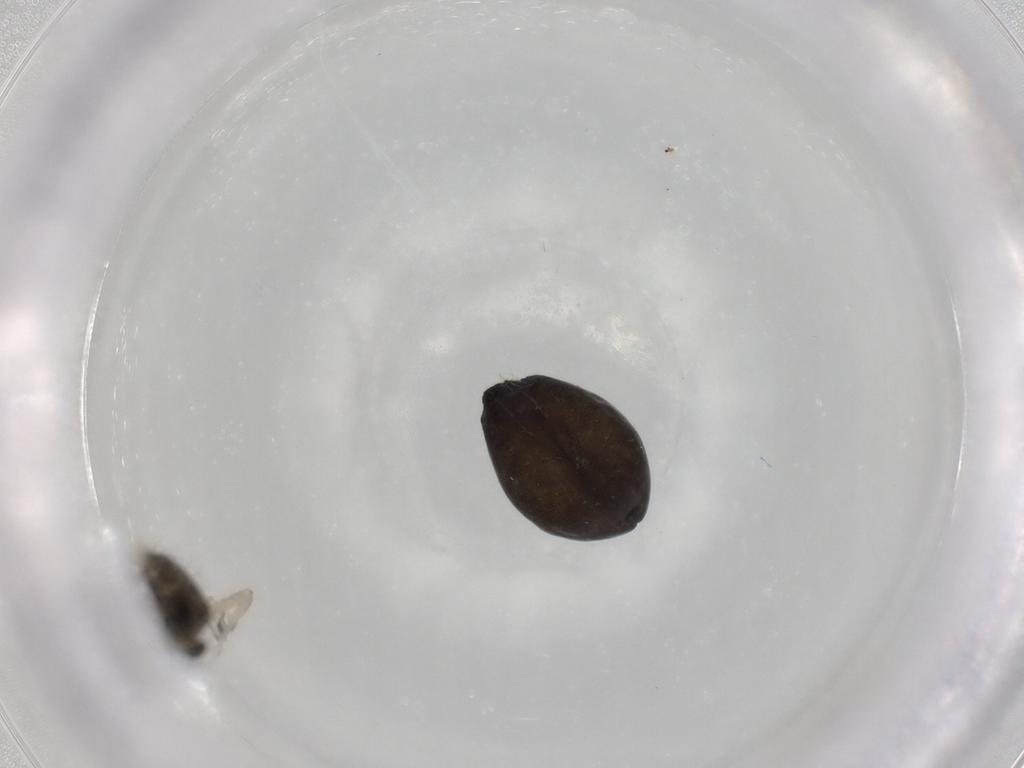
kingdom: Animalia
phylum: Arthropoda
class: Arachnida
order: Araneae
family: Theridiidae
